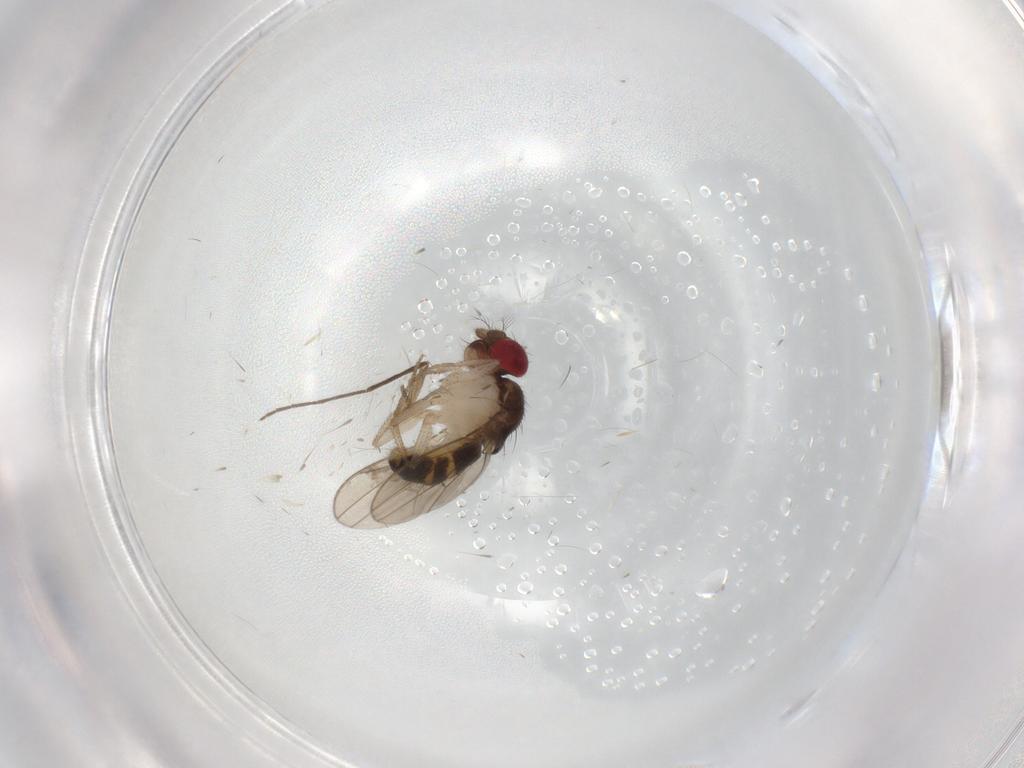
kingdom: Animalia
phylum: Arthropoda
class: Insecta
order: Diptera
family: Drosophilidae
